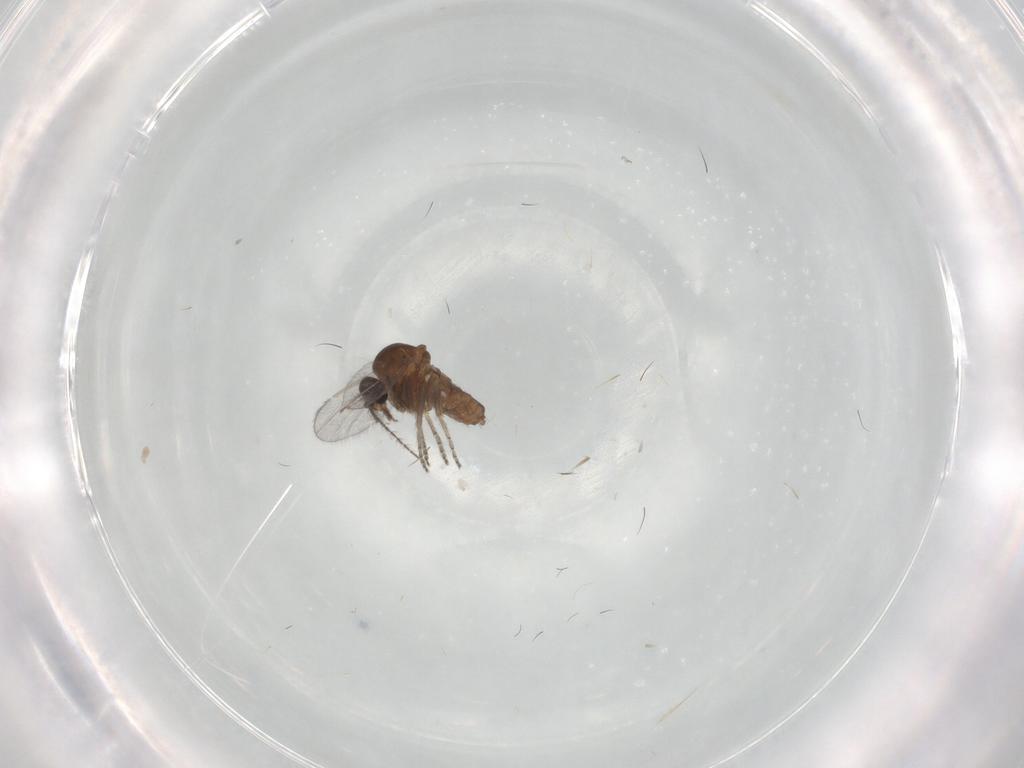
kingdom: Animalia
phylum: Arthropoda
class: Insecta
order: Diptera
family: Ceratopogonidae
